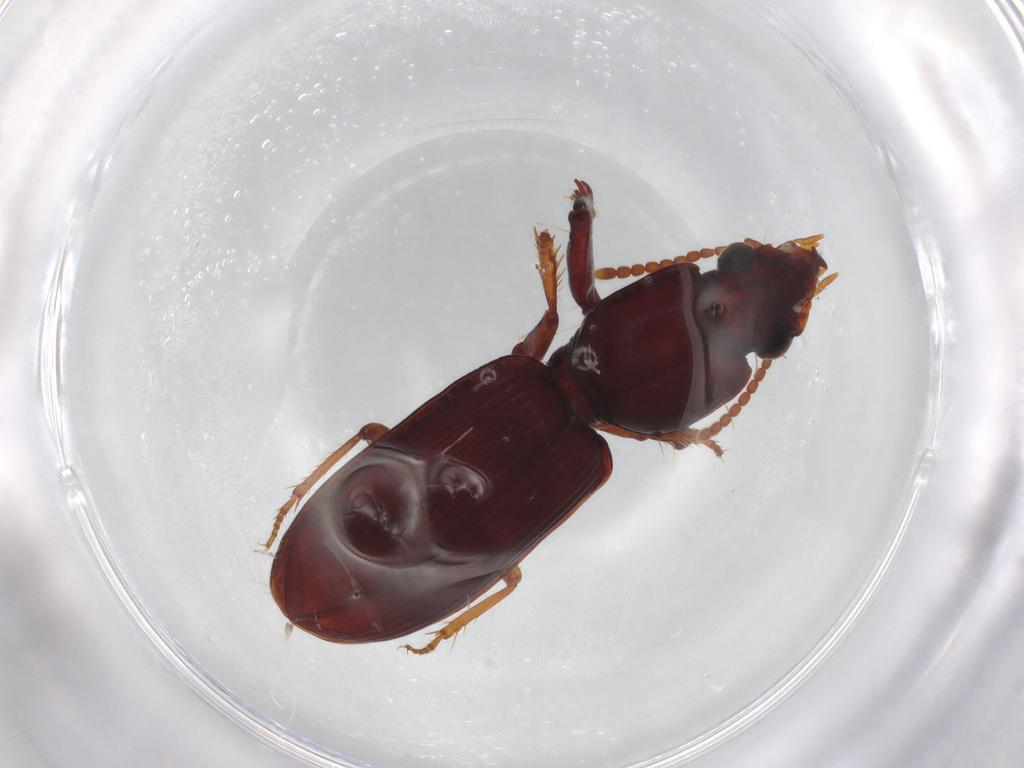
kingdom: Animalia
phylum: Arthropoda
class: Insecta
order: Coleoptera
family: Carabidae
